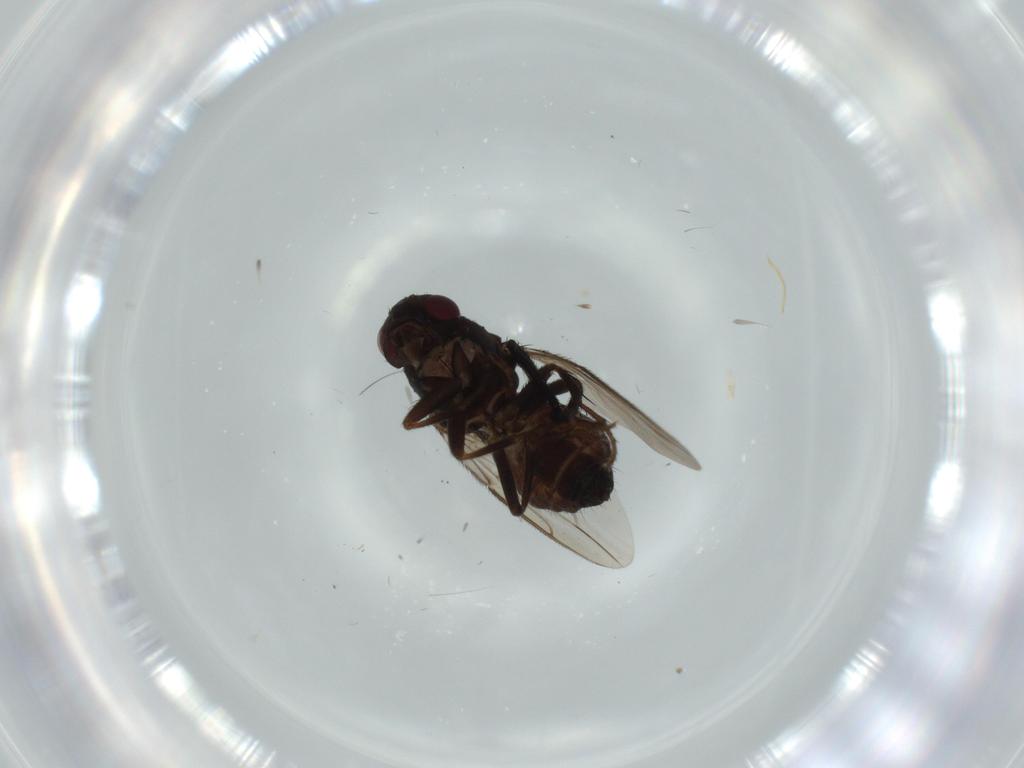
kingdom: Animalia
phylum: Arthropoda
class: Insecta
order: Diptera
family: Milichiidae
